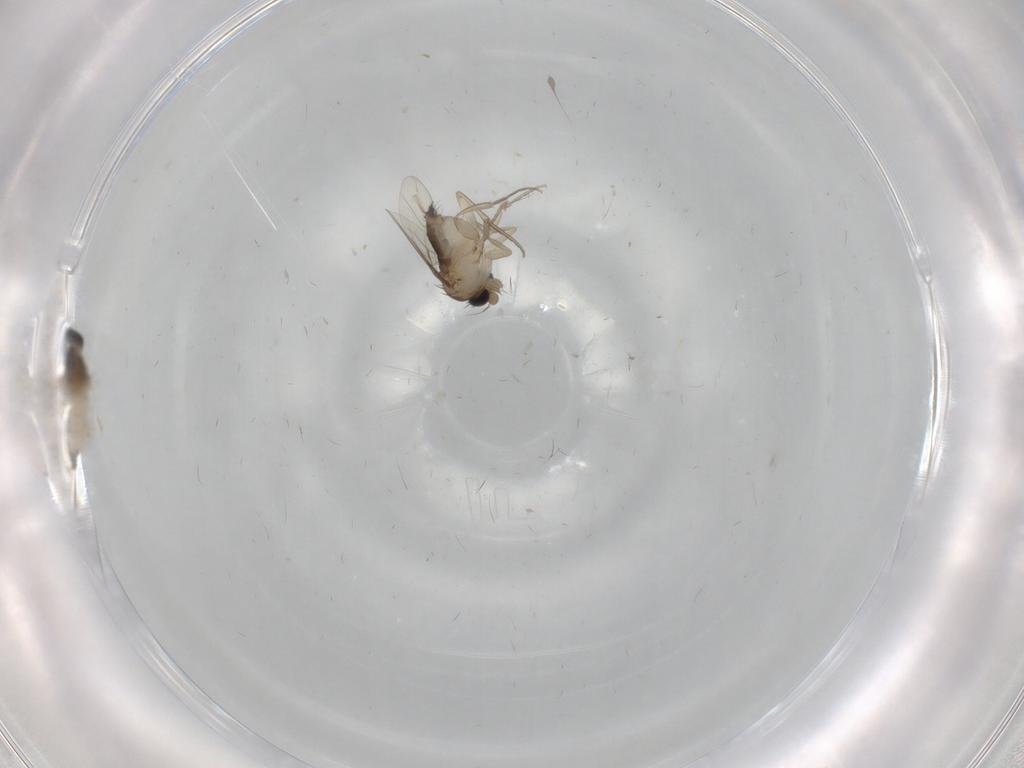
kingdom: Animalia
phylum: Arthropoda
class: Insecta
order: Diptera
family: Cecidomyiidae
